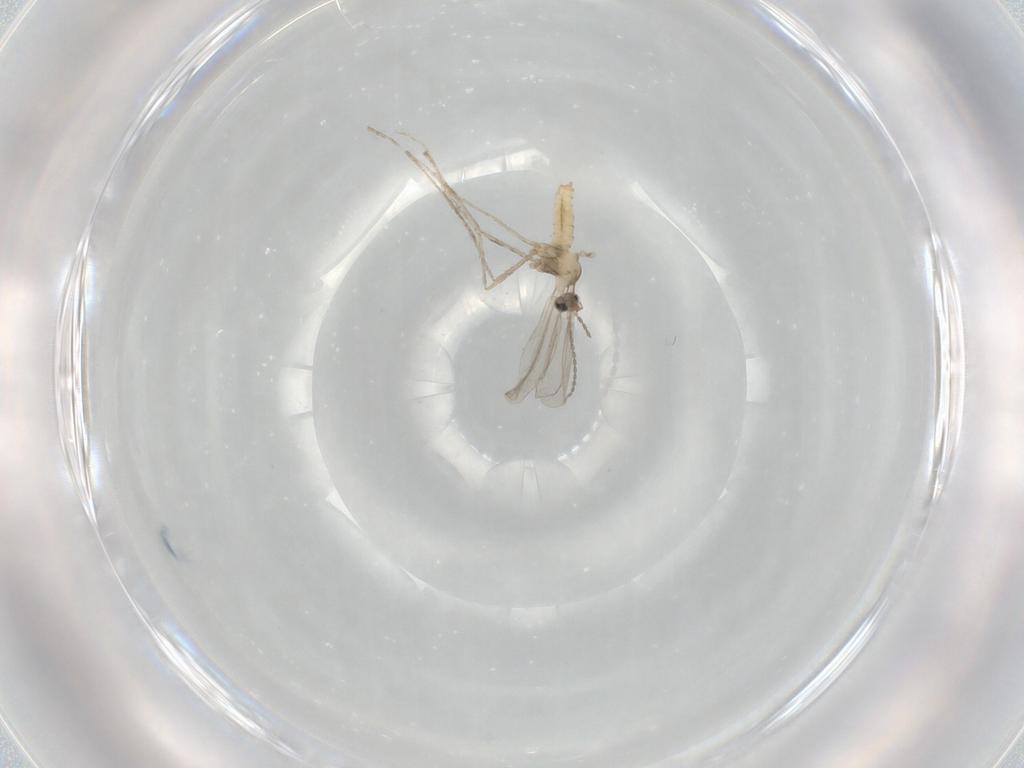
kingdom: Animalia
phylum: Arthropoda
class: Insecta
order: Diptera
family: Cecidomyiidae
